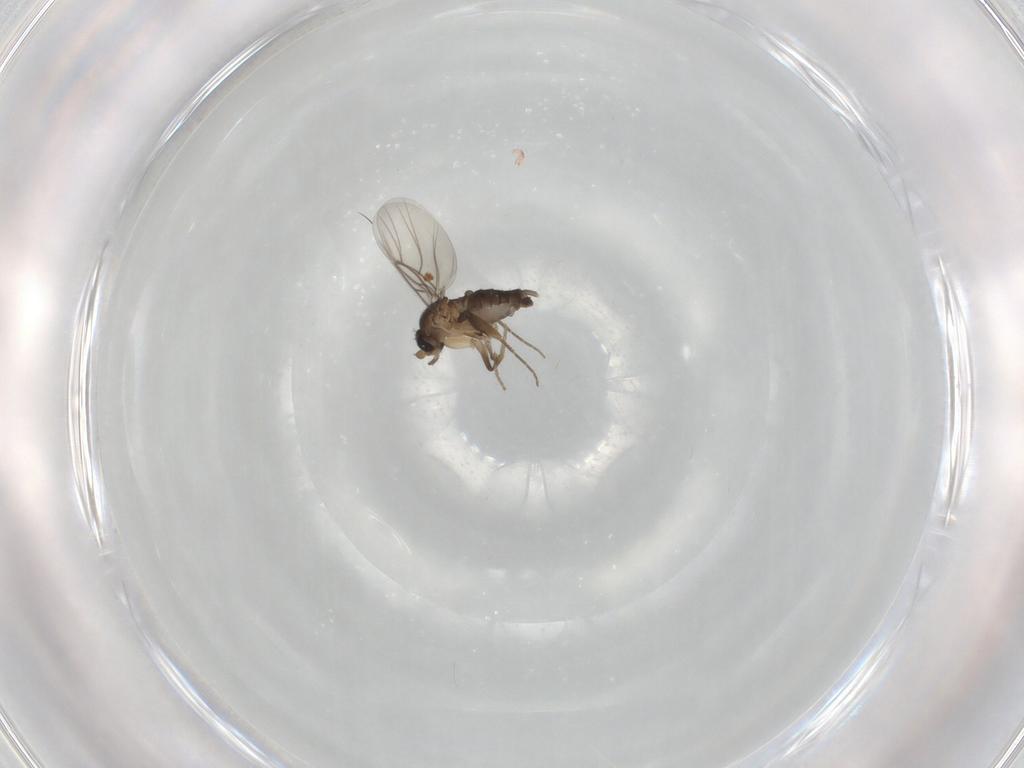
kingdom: Animalia
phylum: Arthropoda
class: Insecta
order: Diptera
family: Phoridae
